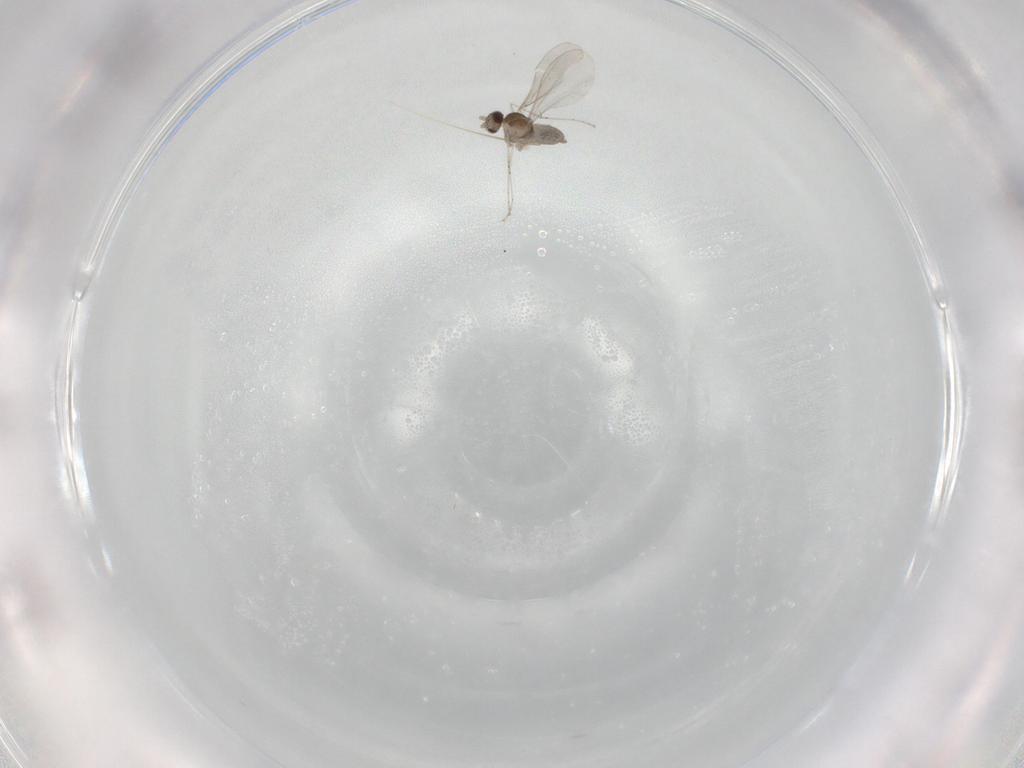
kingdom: Animalia
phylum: Arthropoda
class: Insecta
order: Diptera
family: Cecidomyiidae
